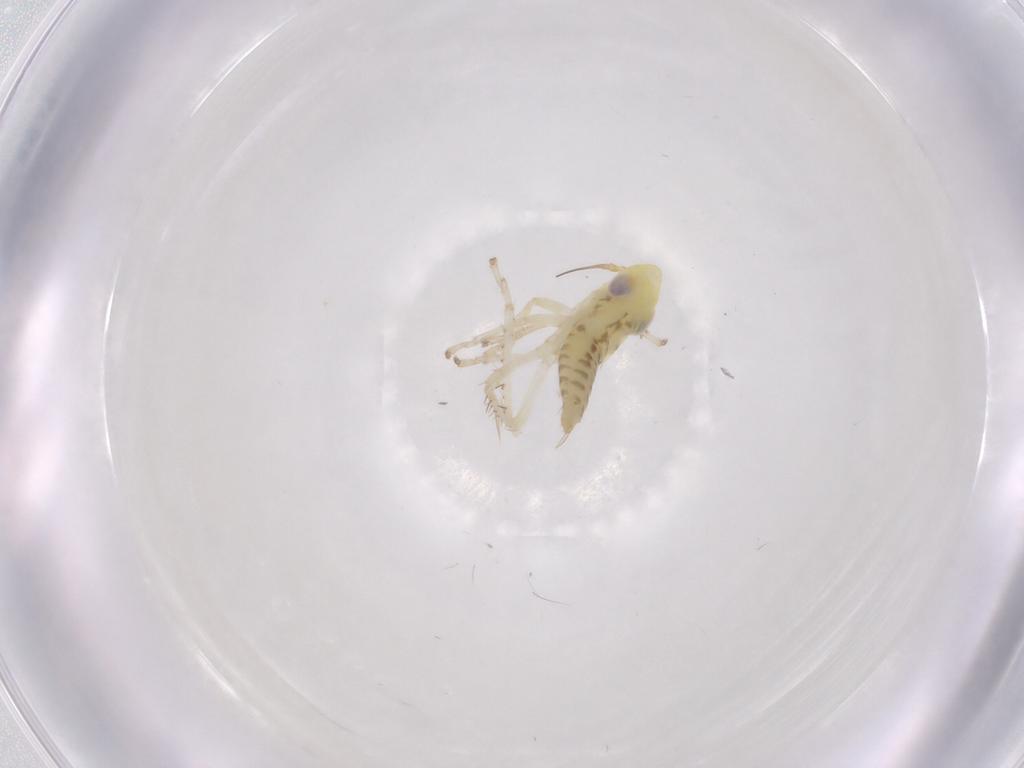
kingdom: Animalia
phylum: Arthropoda
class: Insecta
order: Hemiptera
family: Cicadellidae
